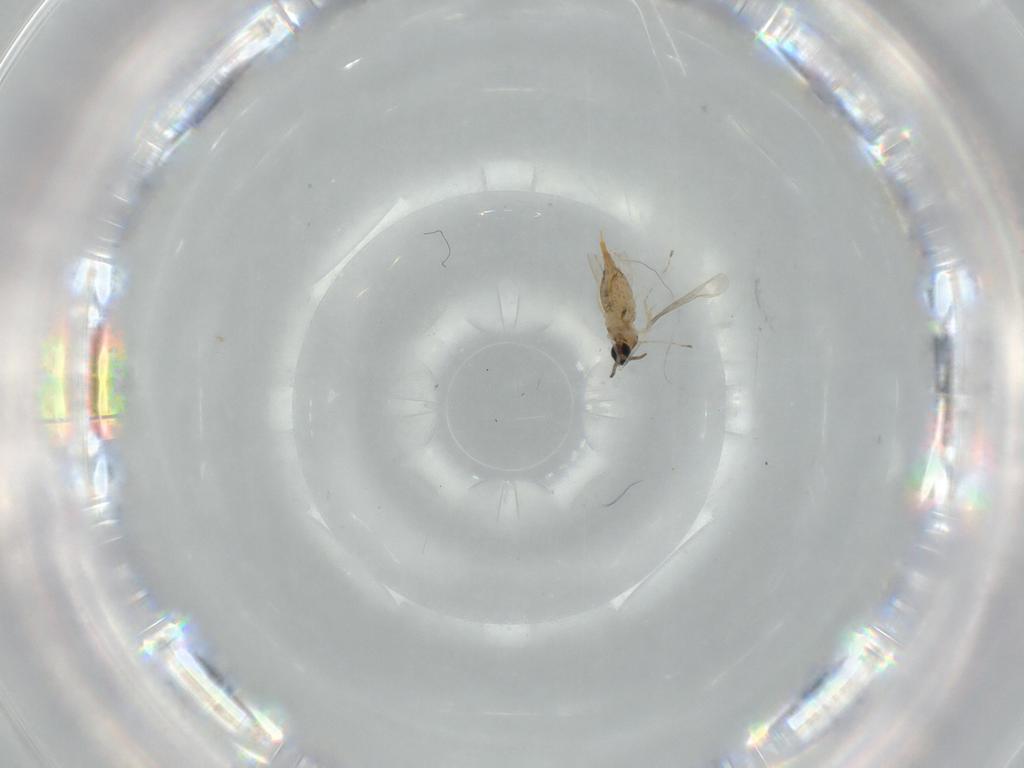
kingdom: Animalia
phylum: Arthropoda
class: Insecta
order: Diptera
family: Cecidomyiidae
